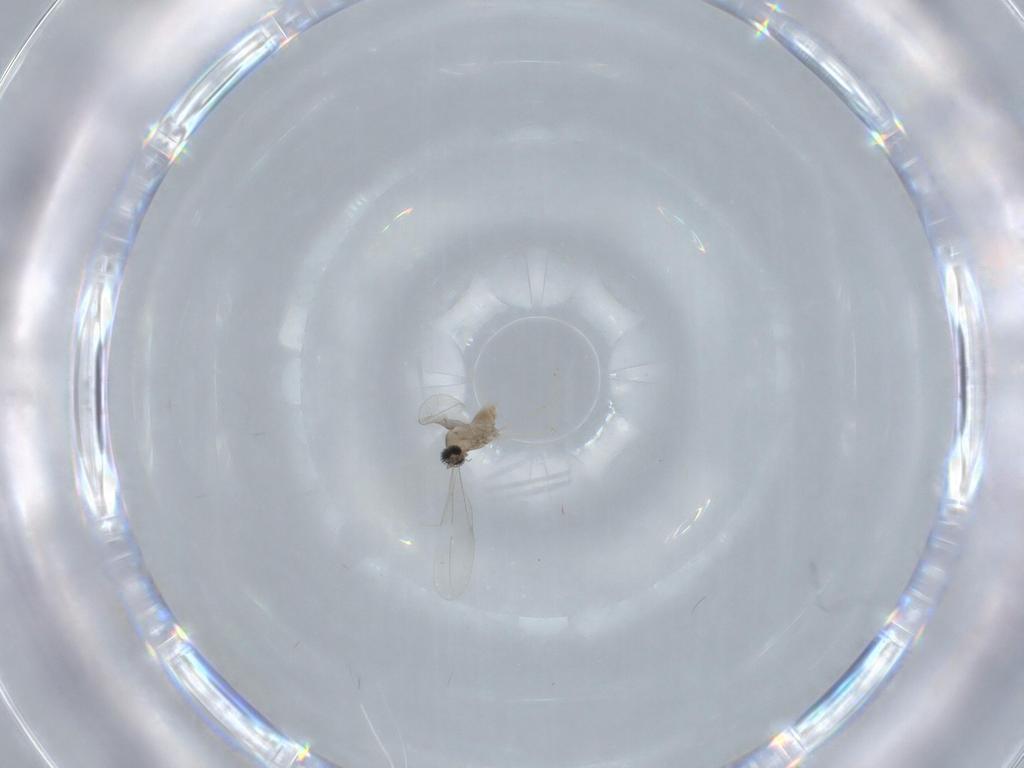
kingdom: Animalia
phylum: Arthropoda
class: Insecta
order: Diptera
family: Cecidomyiidae
